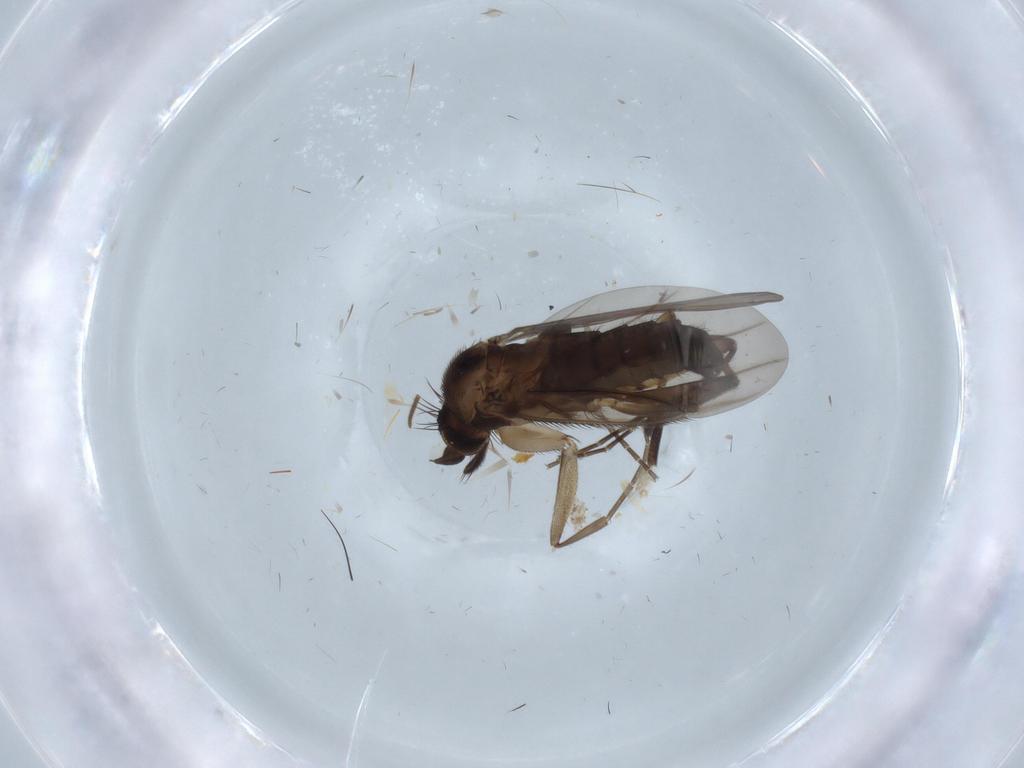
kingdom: Animalia
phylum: Arthropoda
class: Insecta
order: Diptera
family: Phoridae
